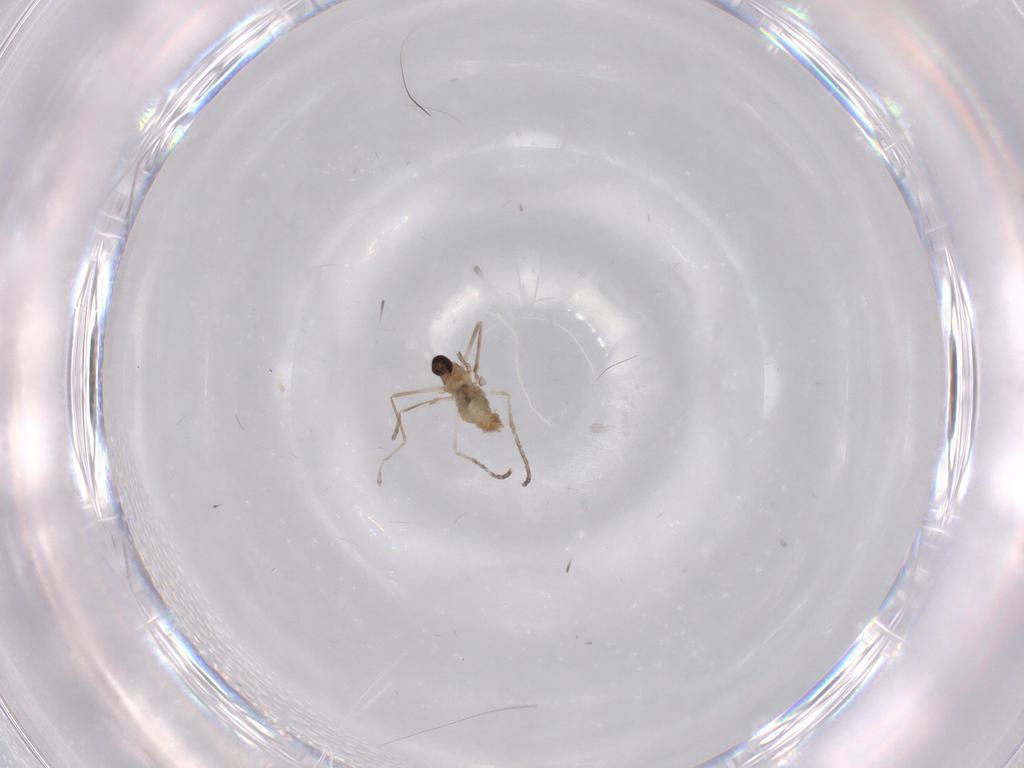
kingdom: Animalia
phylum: Arthropoda
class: Insecta
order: Diptera
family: Cecidomyiidae
